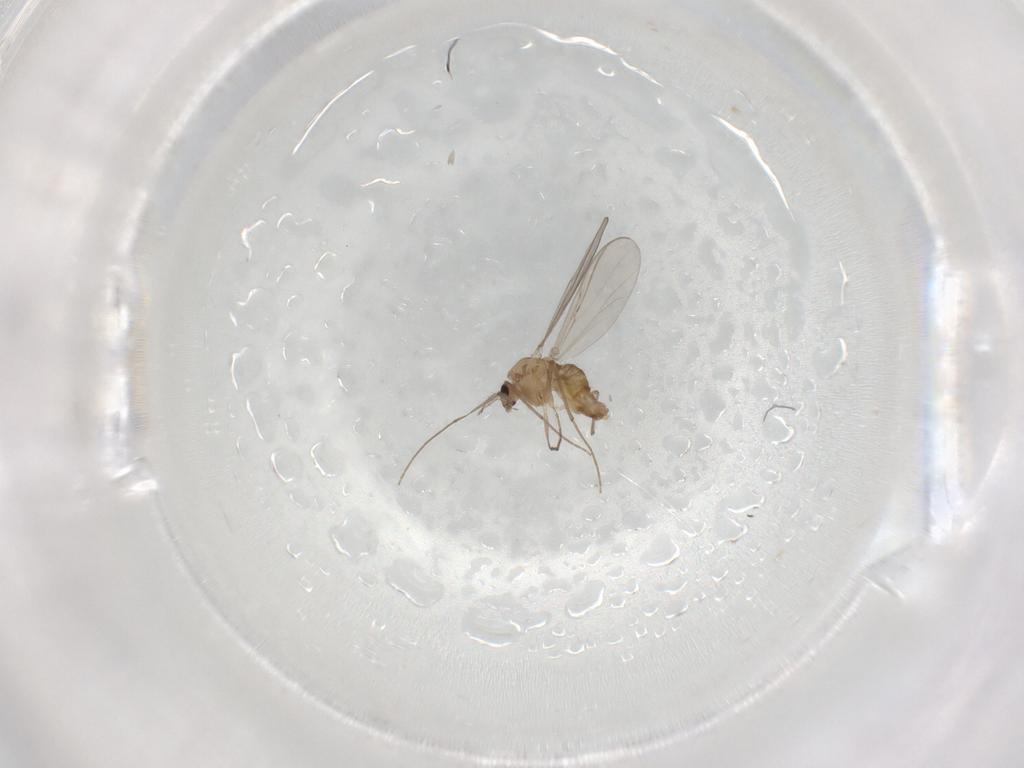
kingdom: Animalia
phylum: Arthropoda
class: Insecta
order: Diptera
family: Chironomidae
